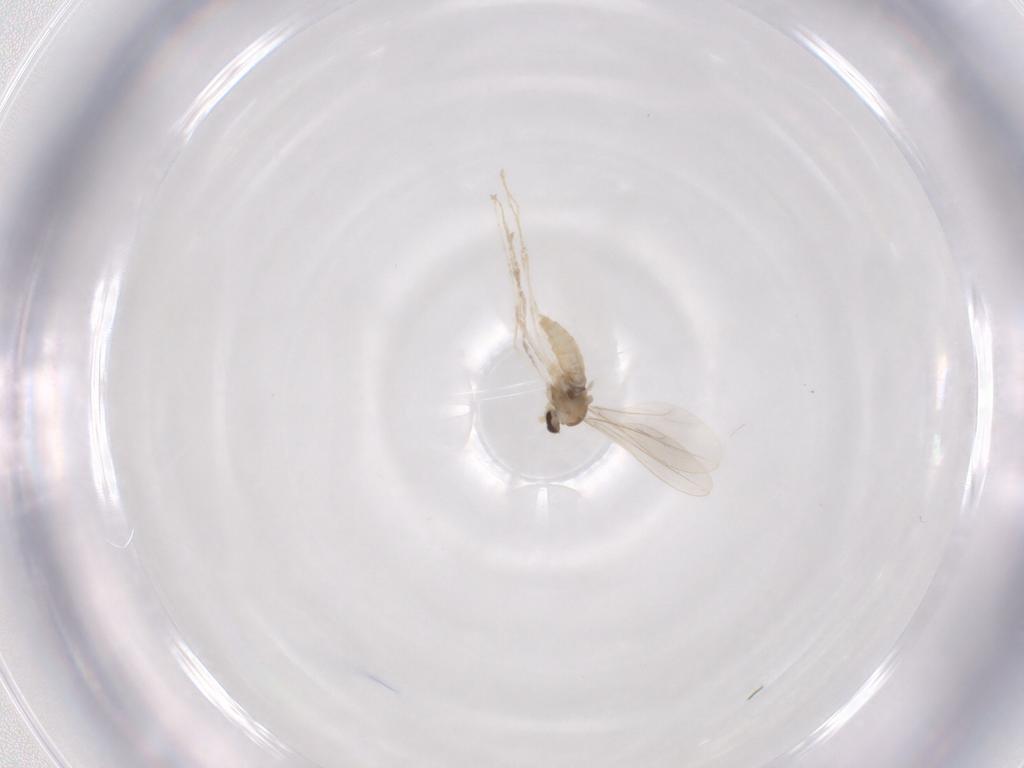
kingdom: Animalia
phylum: Arthropoda
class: Insecta
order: Diptera
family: Cecidomyiidae
